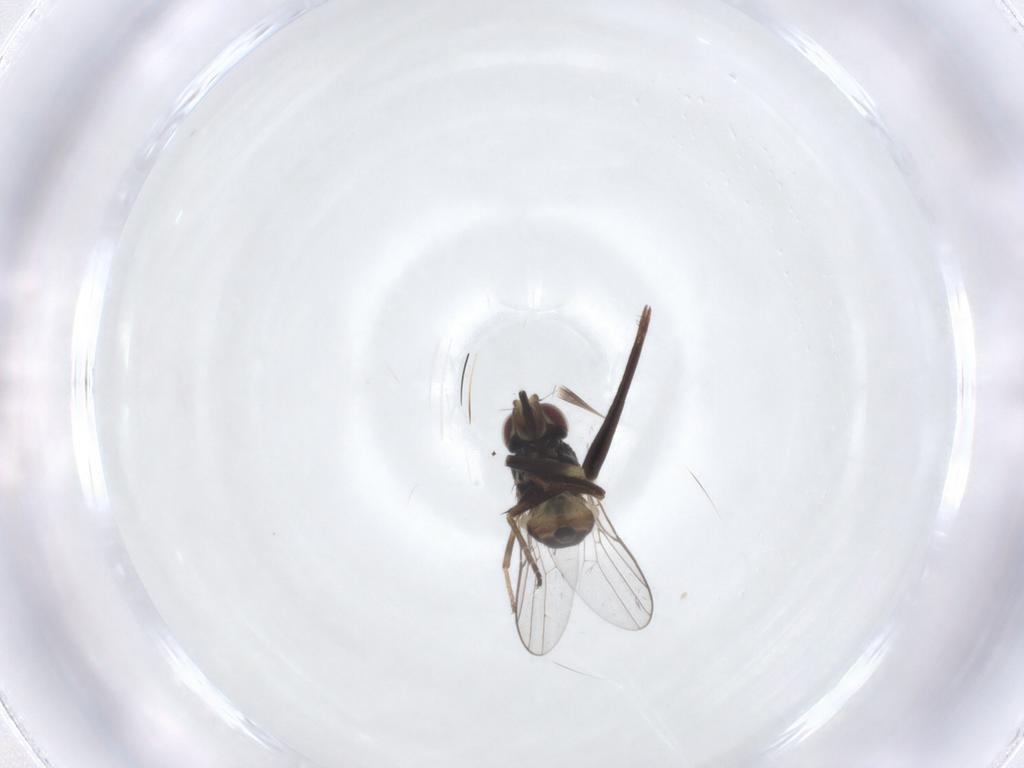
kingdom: Animalia
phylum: Arthropoda
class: Insecta
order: Diptera
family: Chloropidae
